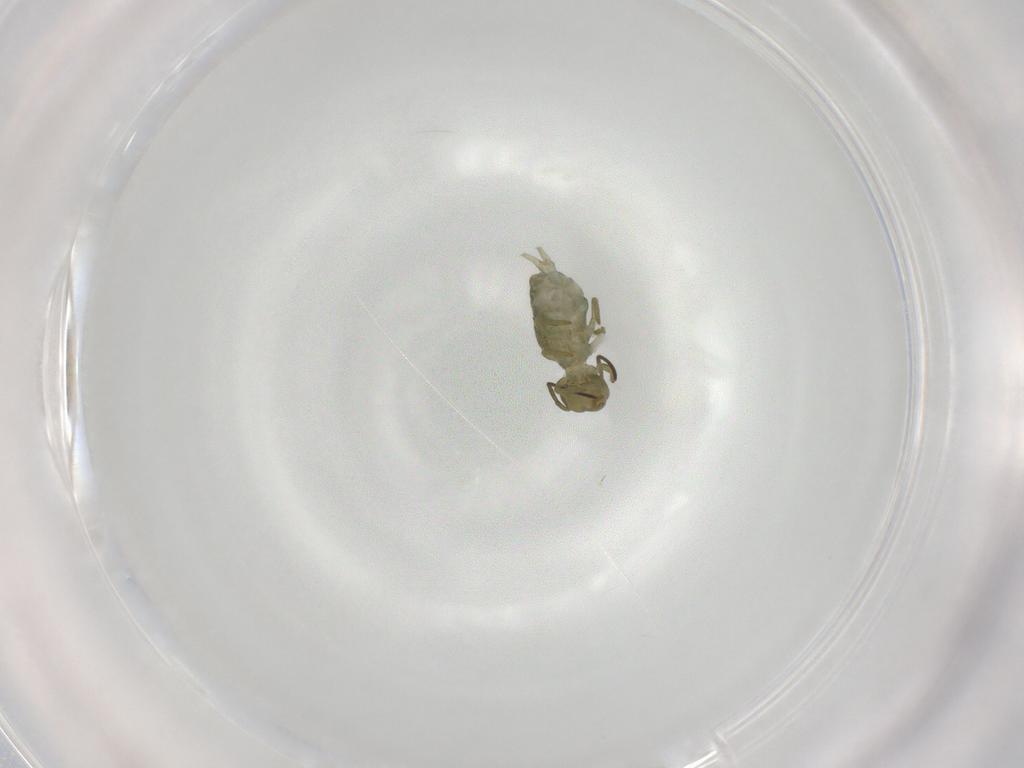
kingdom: Animalia
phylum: Arthropoda
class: Collembola
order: Symphypleona
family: Sminthuridae
